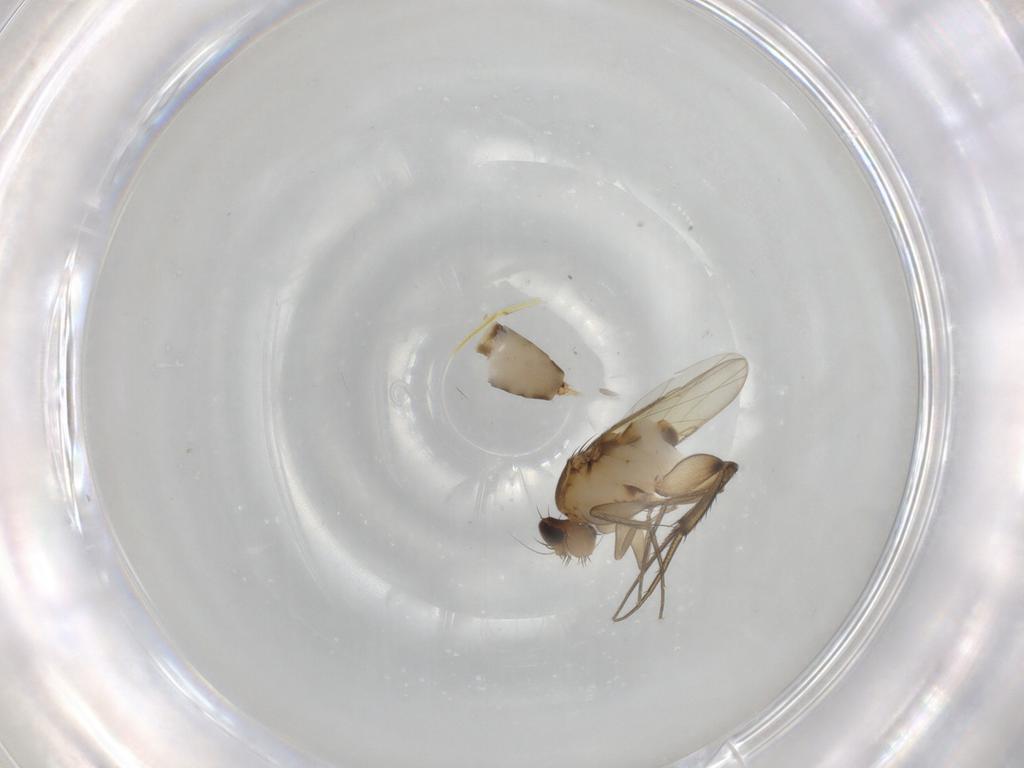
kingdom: Animalia
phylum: Arthropoda
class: Insecta
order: Diptera
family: Phoridae
